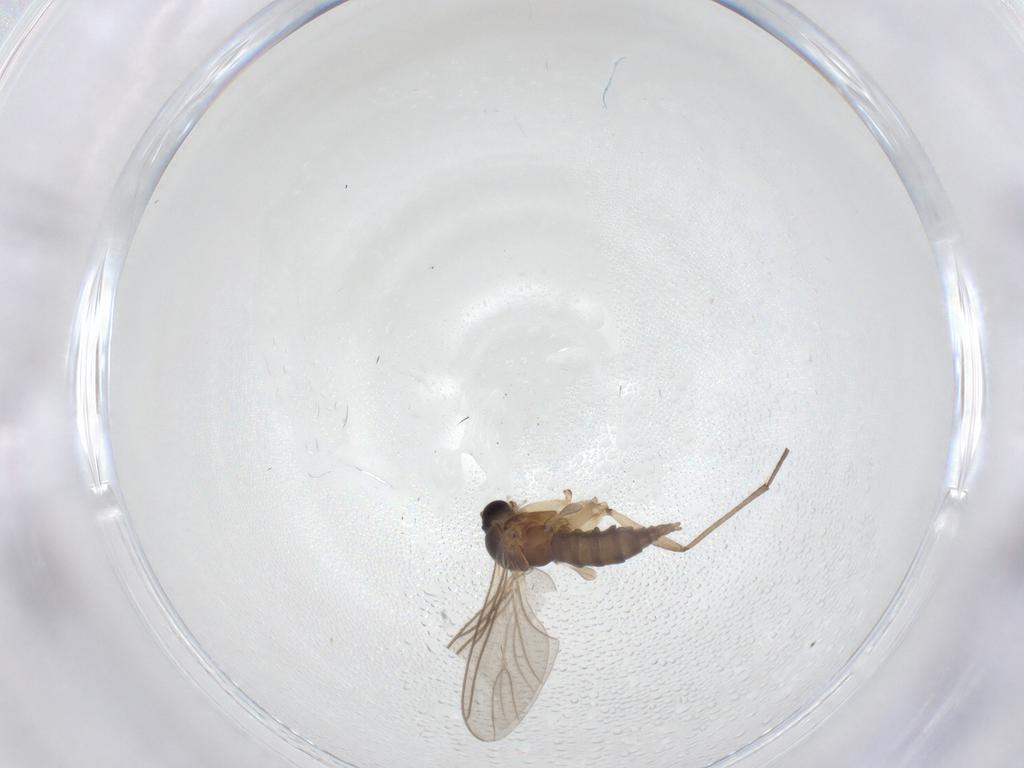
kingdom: Animalia
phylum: Arthropoda
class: Insecta
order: Diptera
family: Sciaridae
